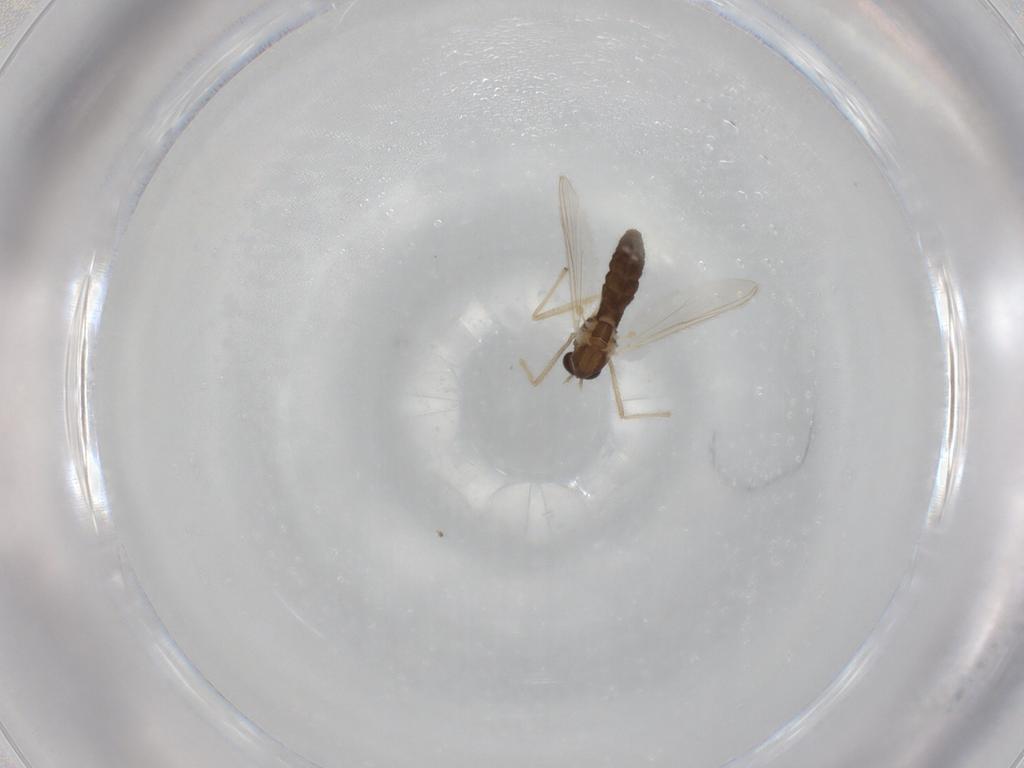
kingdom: Animalia
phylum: Arthropoda
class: Insecta
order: Diptera
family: Chironomidae
